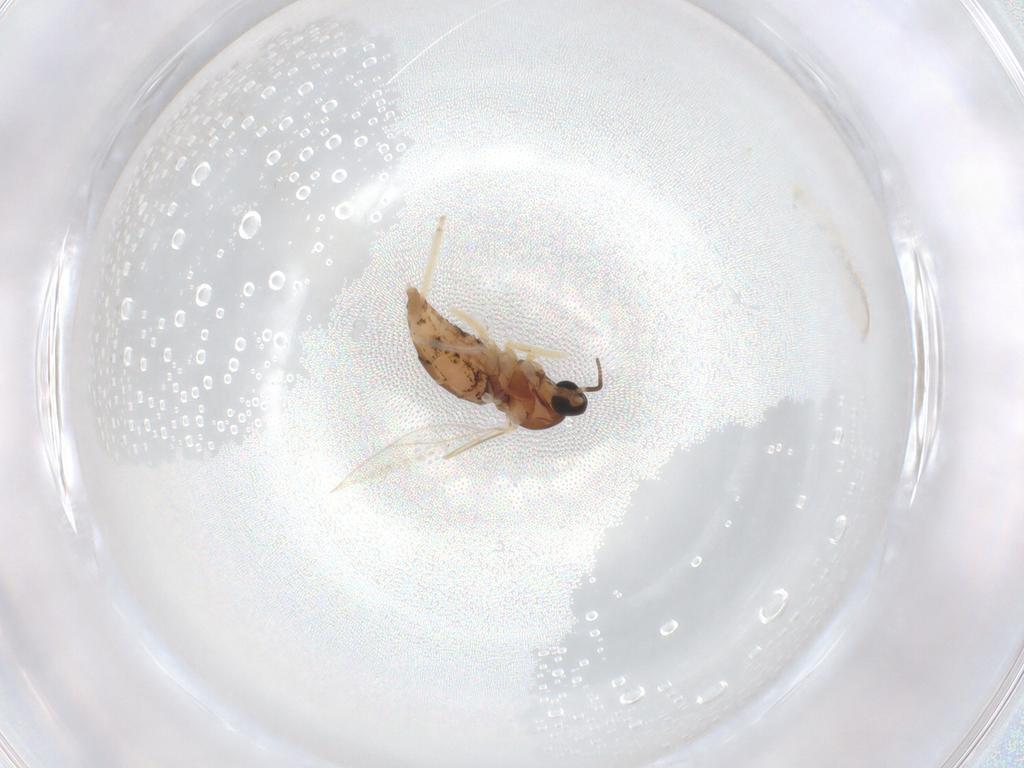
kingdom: Animalia
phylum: Arthropoda
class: Insecta
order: Diptera
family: Cecidomyiidae
